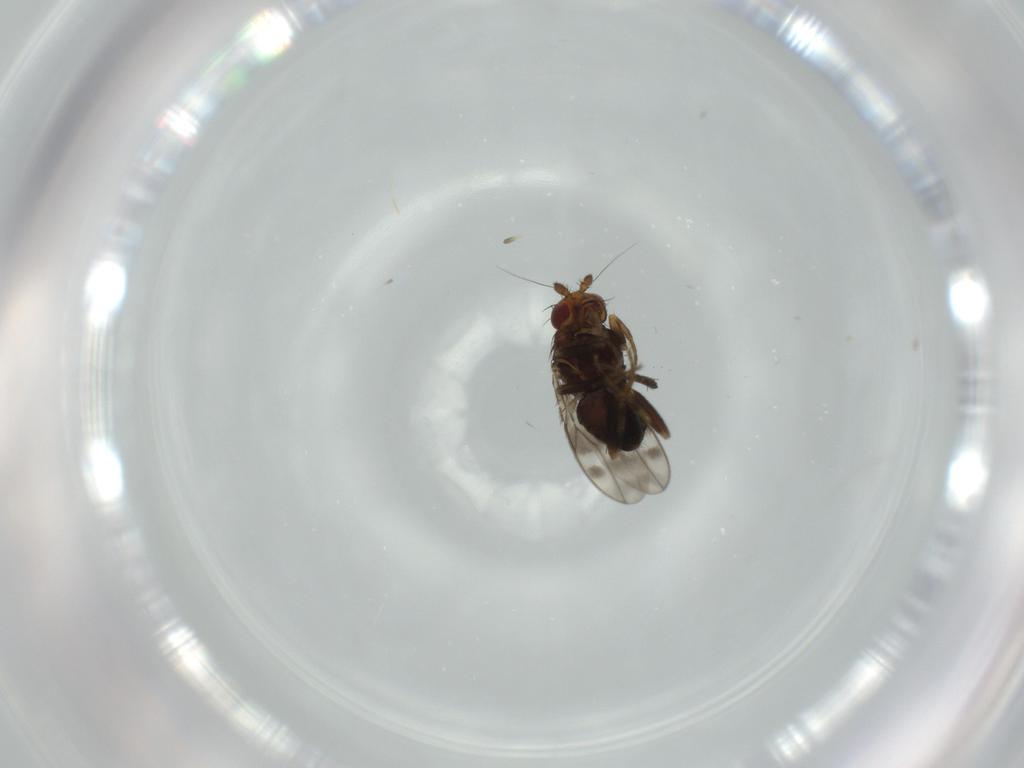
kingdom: Animalia
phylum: Arthropoda
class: Insecta
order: Diptera
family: Sphaeroceridae
